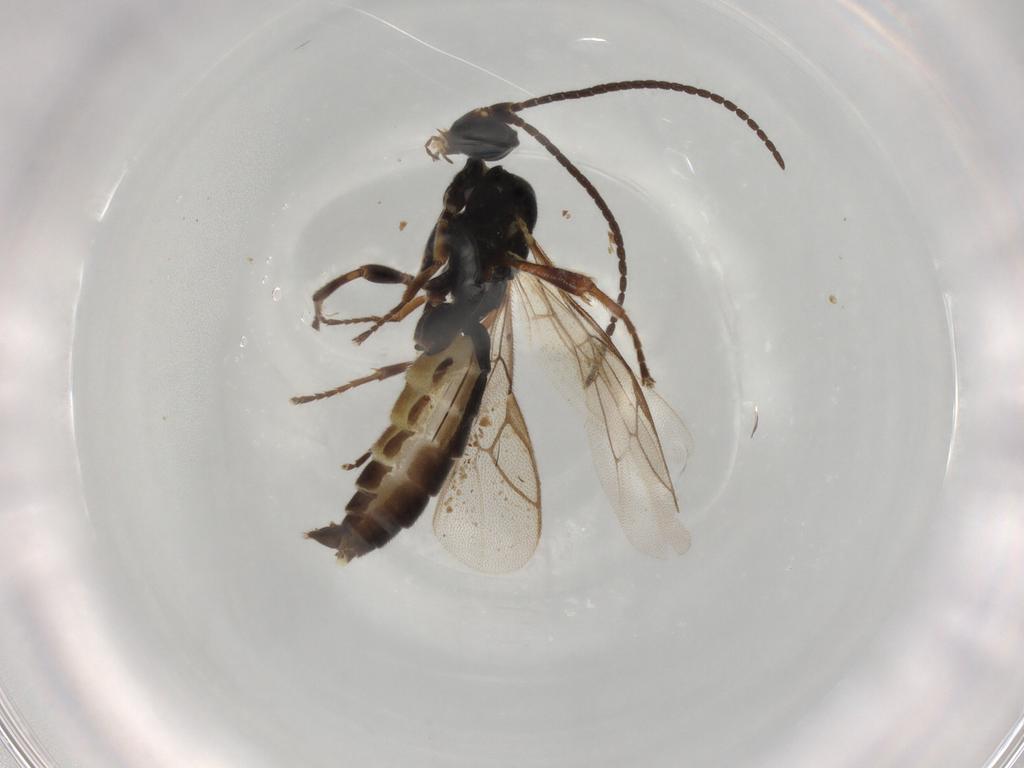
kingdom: Animalia
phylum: Arthropoda
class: Insecta
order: Hymenoptera
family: Ichneumonidae
